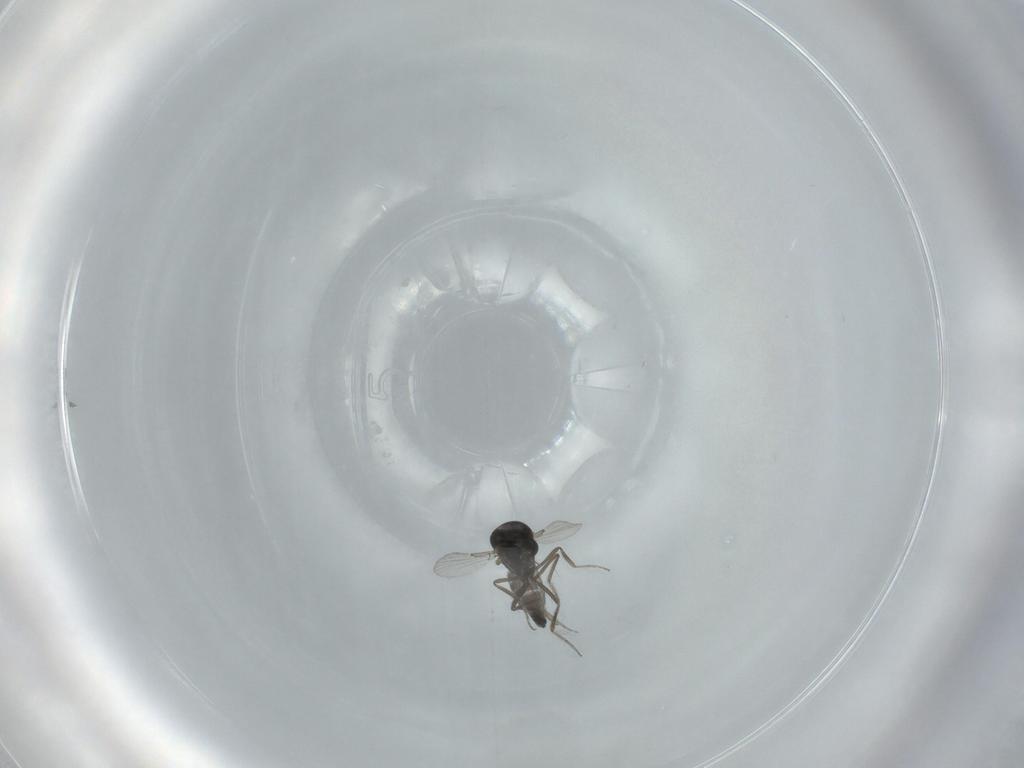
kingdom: Animalia
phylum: Arthropoda
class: Insecta
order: Diptera
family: Ceratopogonidae
